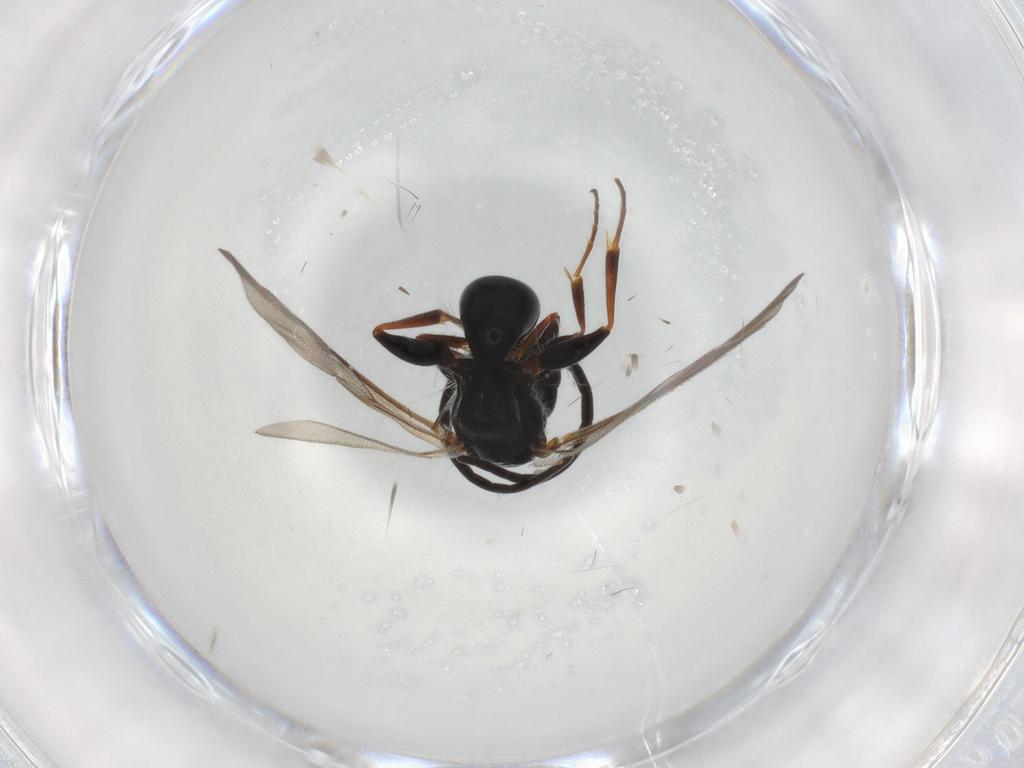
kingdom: Animalia
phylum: Arthropoda
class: Insecta
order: Hymenoptera
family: Bethylidae
